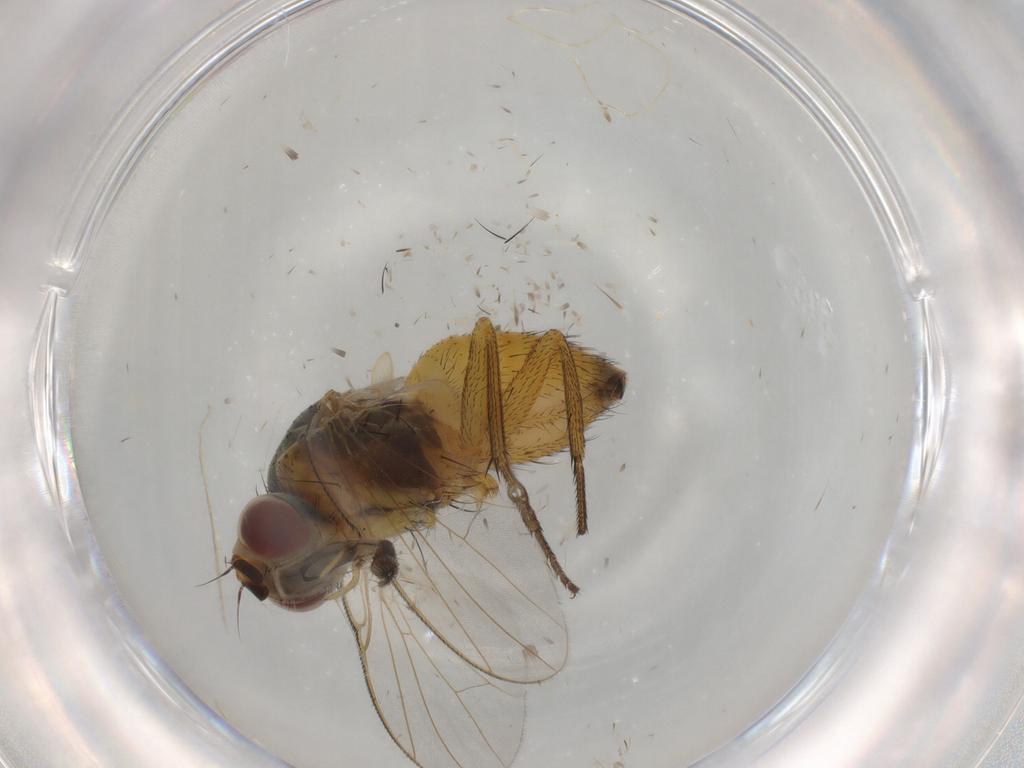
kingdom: Animalia
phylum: Arthropoda
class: Insecta
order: Diptera
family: Muscidae
